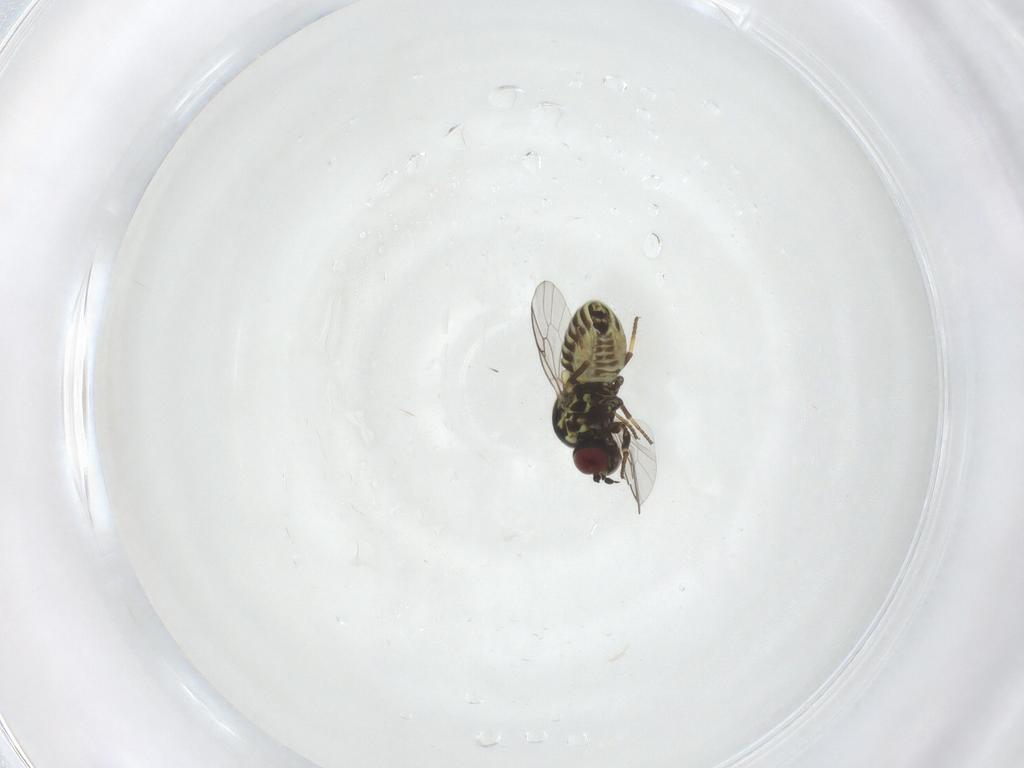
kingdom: Animalia
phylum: Arthropoda
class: Insecta
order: Diptera
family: Mythicomyiidae
